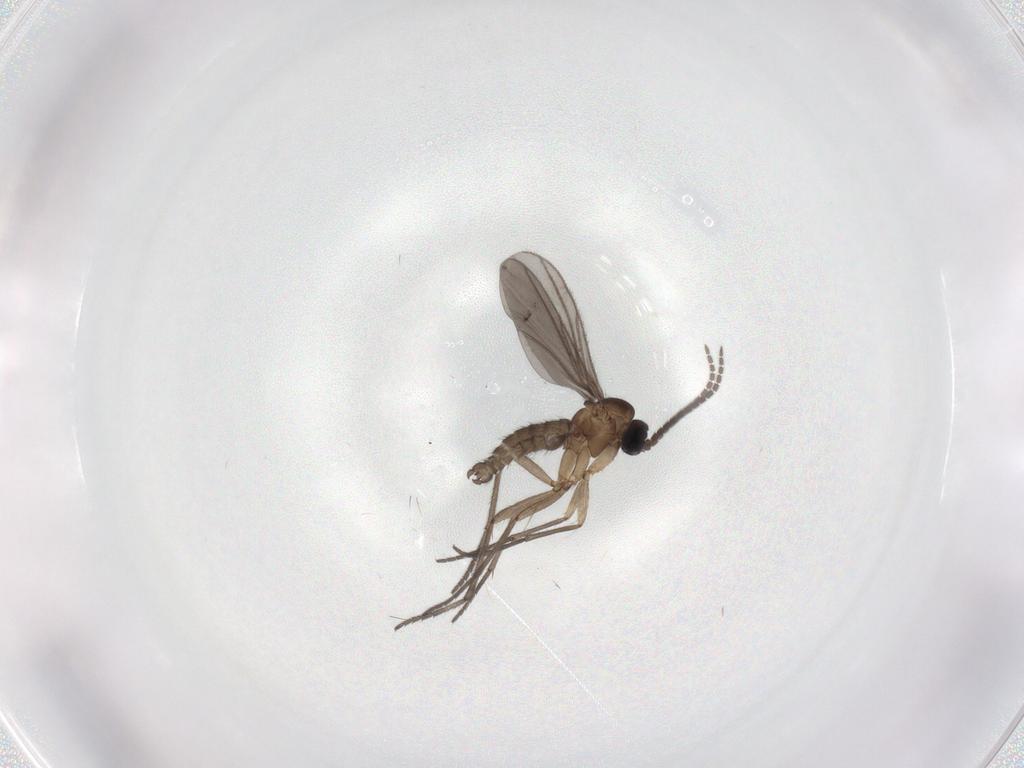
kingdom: Animalia
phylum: Arthropoda
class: Insecta
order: Diptera
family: Sciaridae
